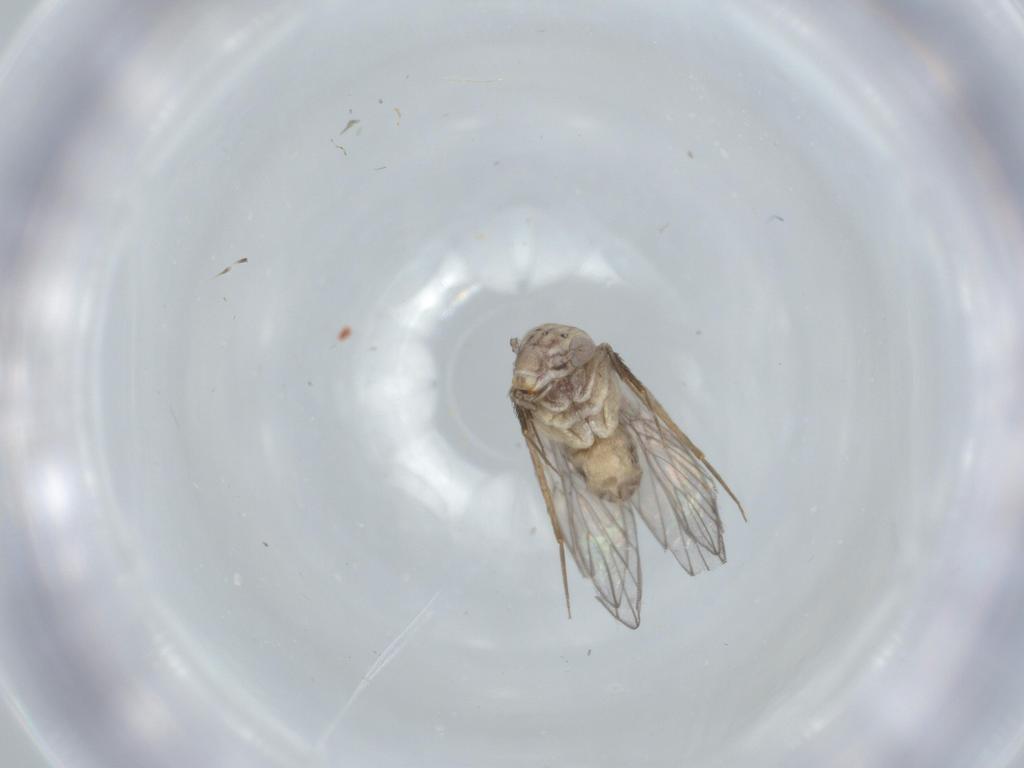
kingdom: Animalia
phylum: Arthropoda
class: Insecta
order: Psocodea
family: Lepidopsocidae
